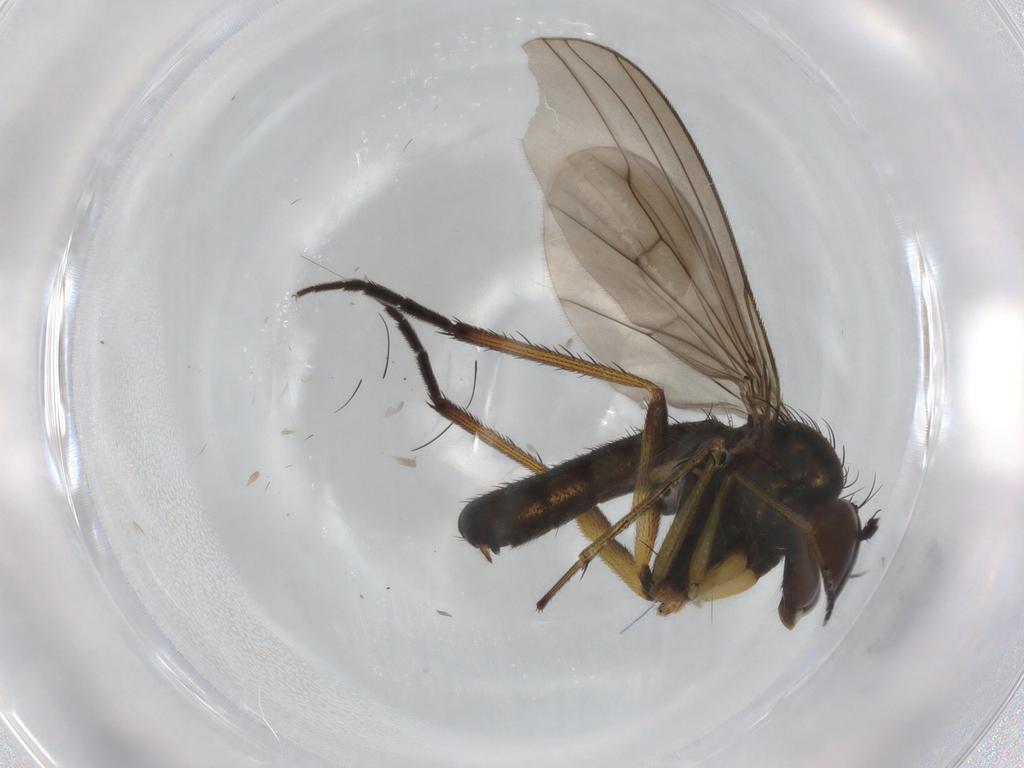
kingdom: Animalia
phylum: Arthropoda
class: Insecta
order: Diptera
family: Dolichopodidae
